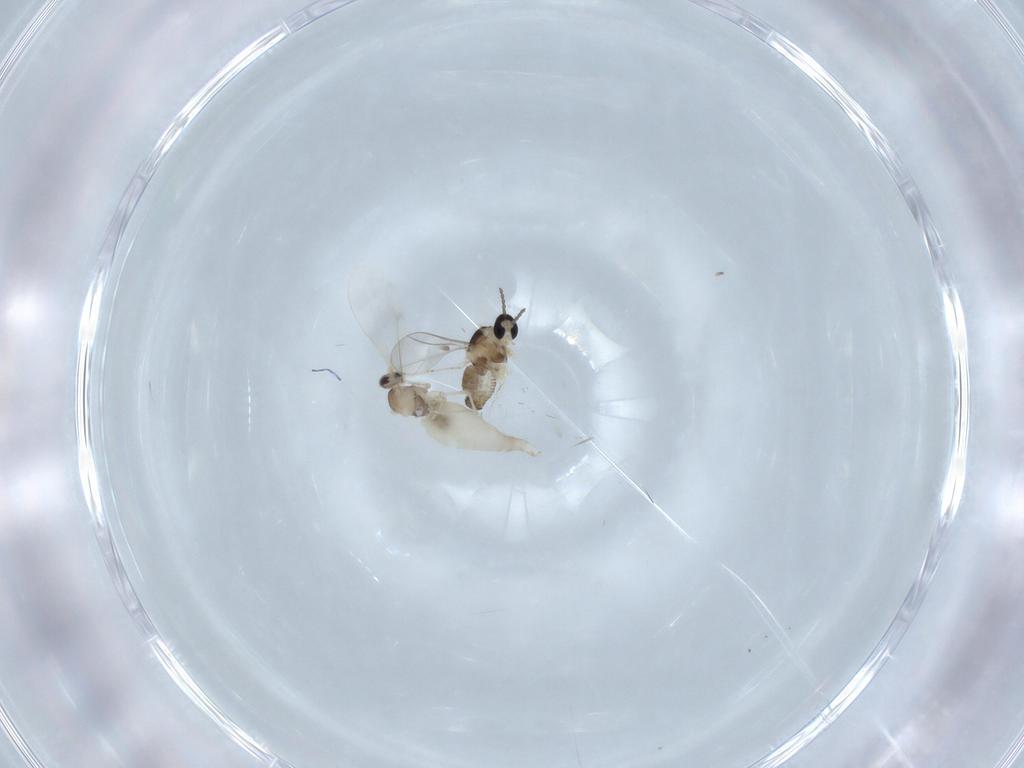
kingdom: Animalia
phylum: Arthropoda
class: Insecta
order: Diptera
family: Cecidomyiidae
